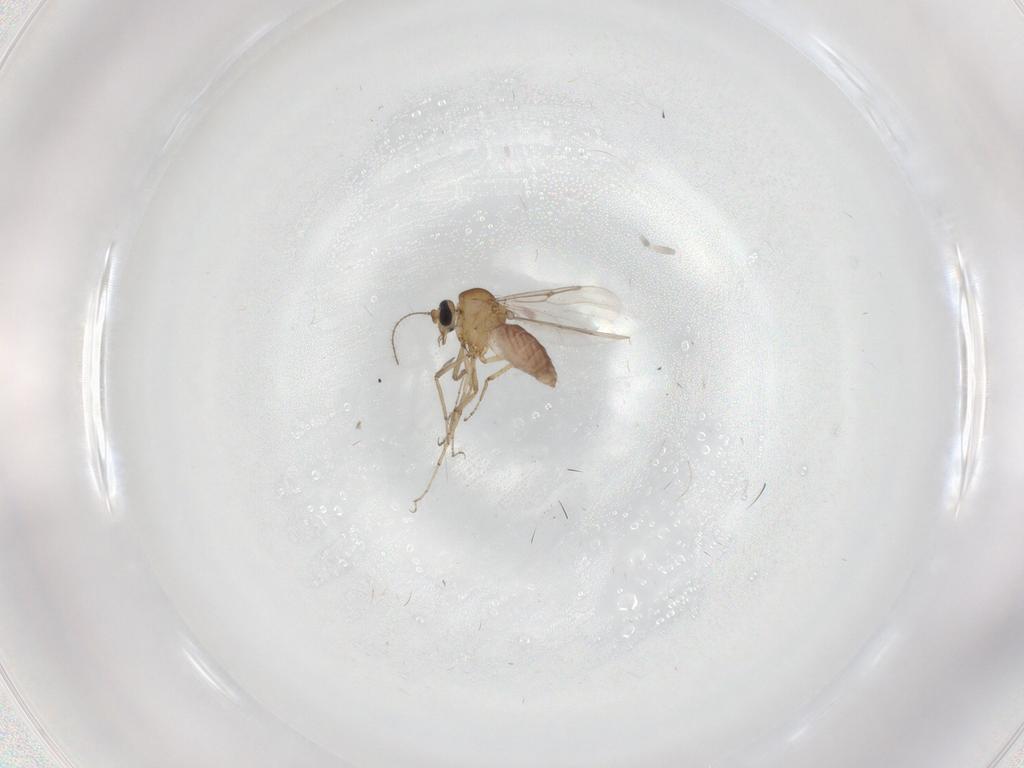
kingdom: Animalia
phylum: Arthropoda
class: Insecta
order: Diptera
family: Ceratopogonidae
